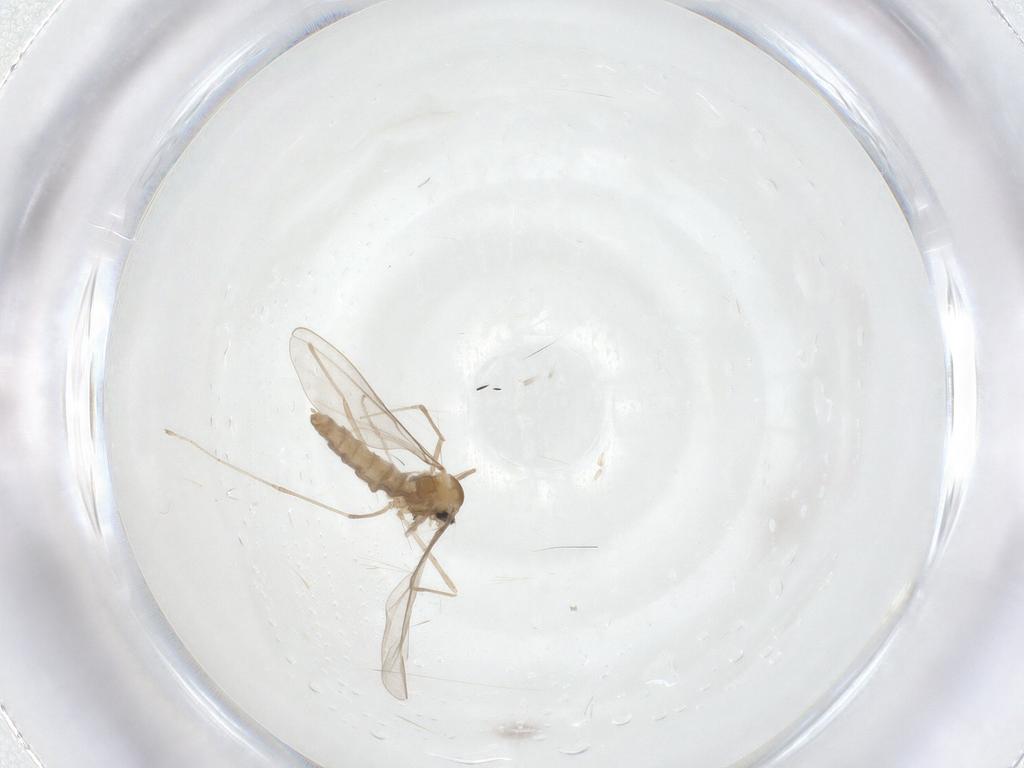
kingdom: Animalia
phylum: Arthropoda
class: Insecta
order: Diptera
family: Cecidomyiidae
